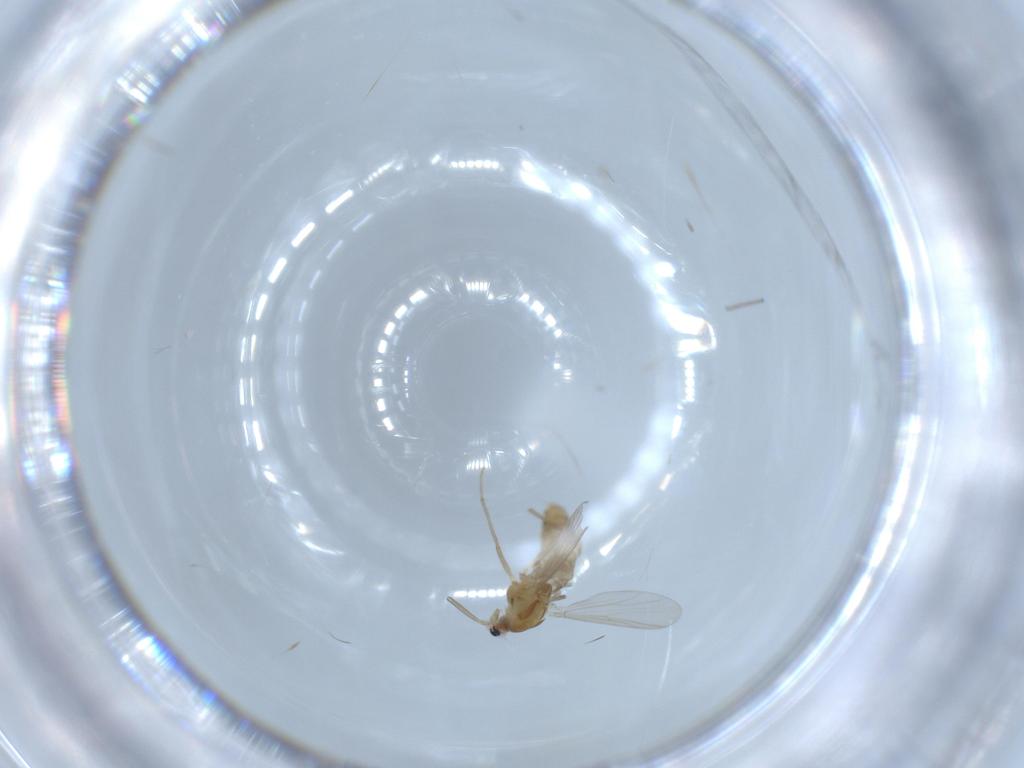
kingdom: Animalia
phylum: Arthropoda
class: Insecta
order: Diptera
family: Chironomidae
